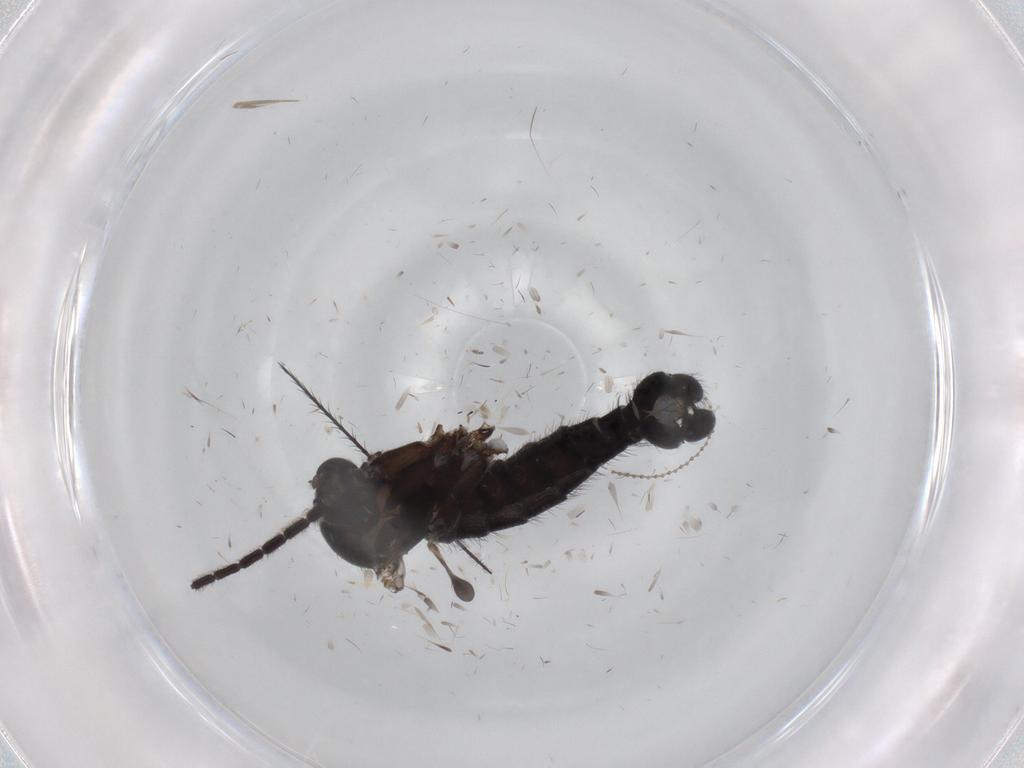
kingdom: Animalia
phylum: Arthropoda
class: Insecta
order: Diptera
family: Sciaridae
